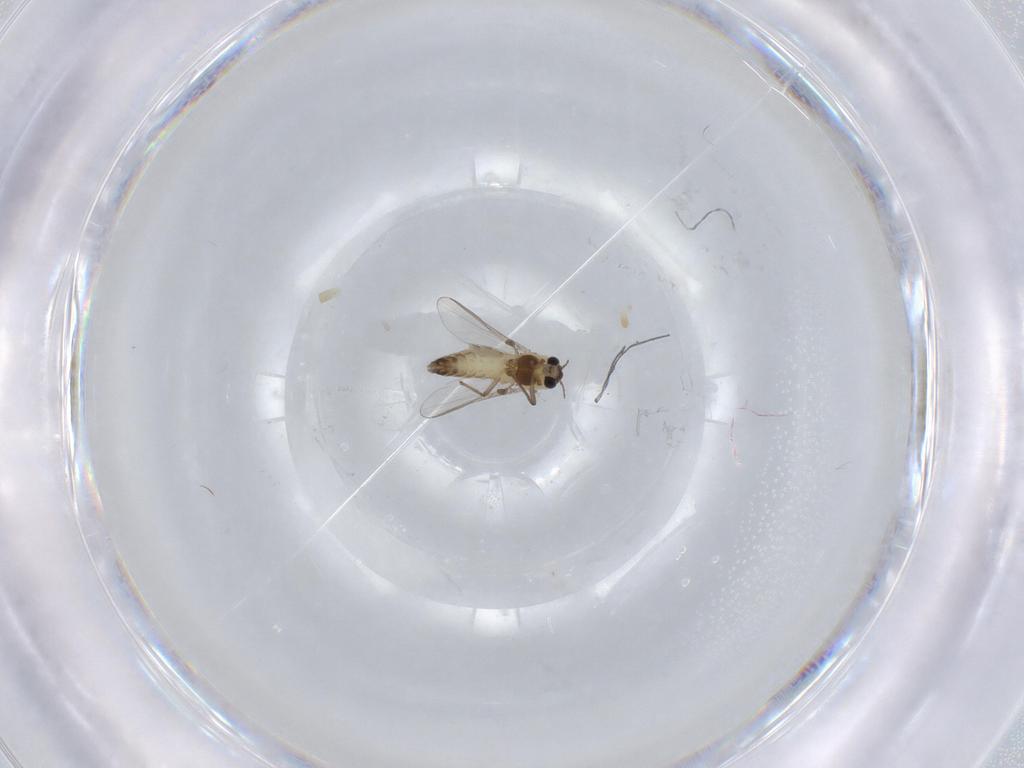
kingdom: Animalia
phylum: Arthropoda
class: Insecta
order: Diptera
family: Chironomidae
